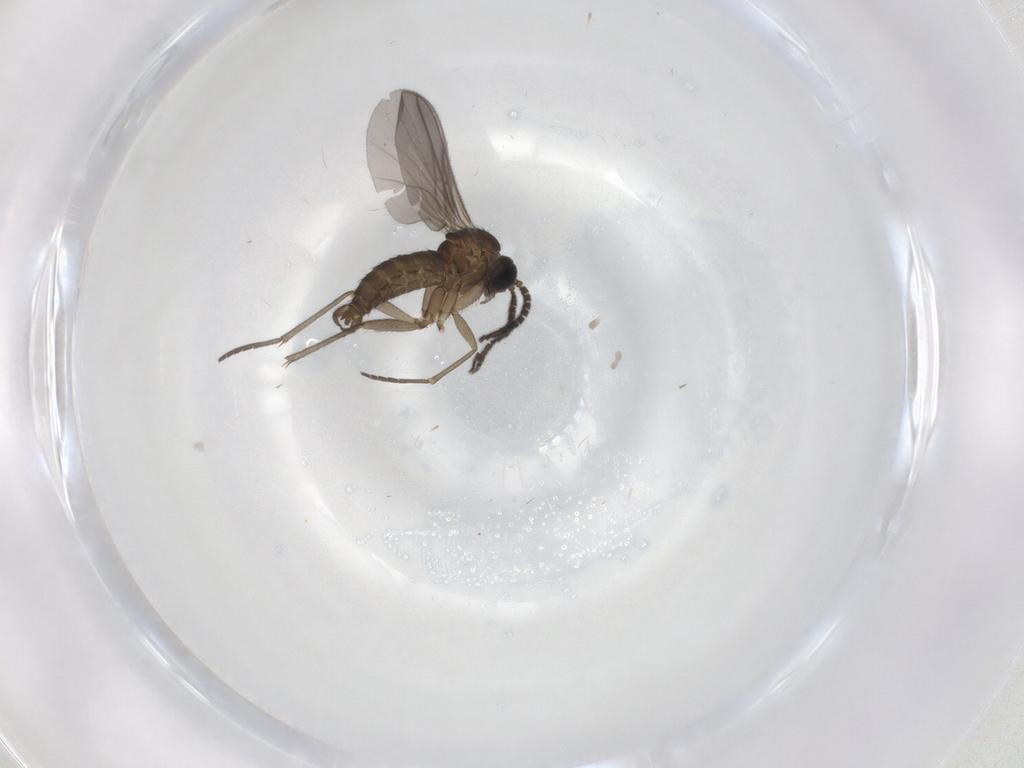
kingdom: Animalia
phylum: Arthropoda
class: Insecta
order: Diptera
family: Sciaridae
